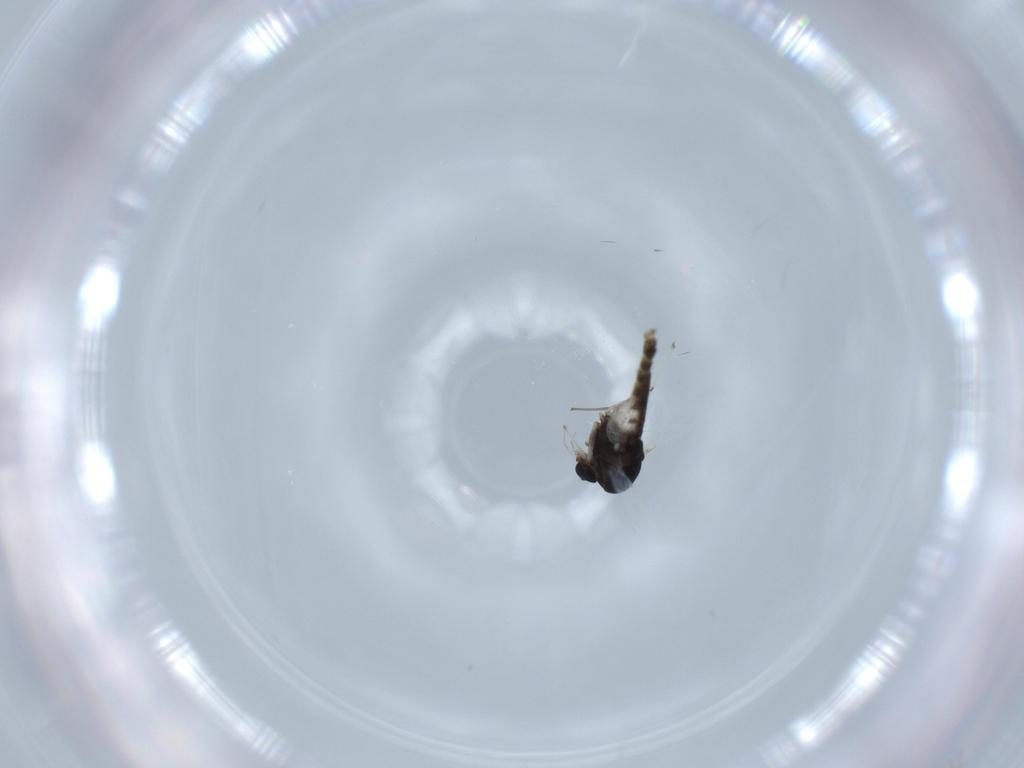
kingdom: Animalia
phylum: Arthropoda
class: Insecta
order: Diptera
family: Chironomidae
